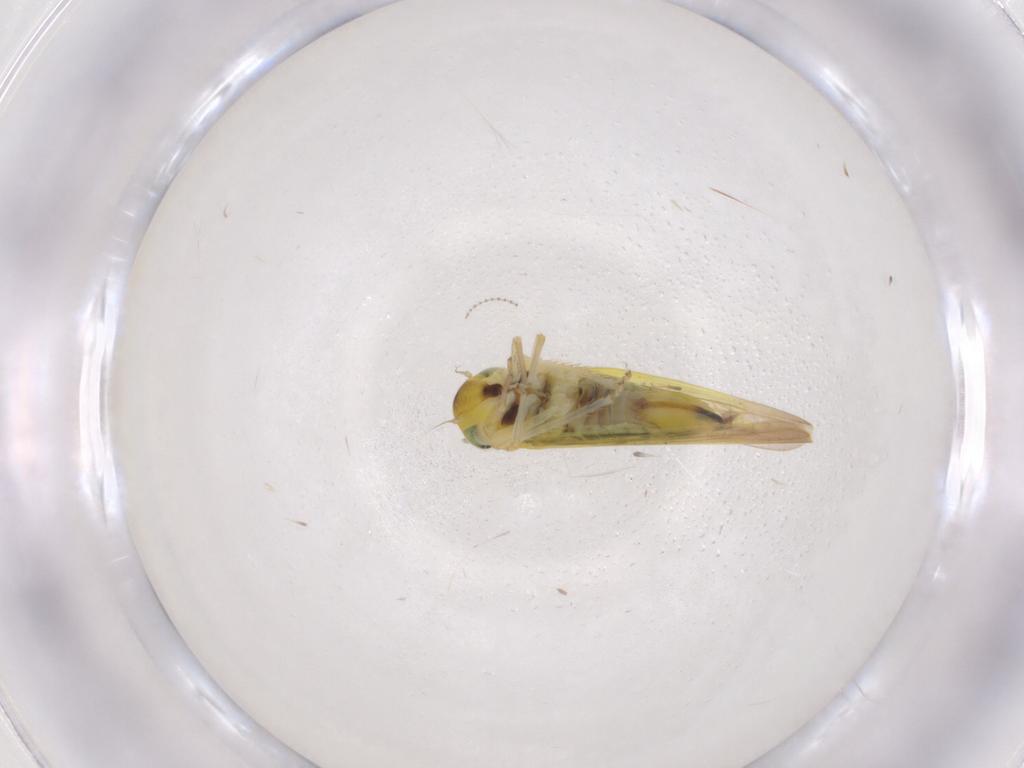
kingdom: Animalia
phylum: Arthropoda
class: Insecta
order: Hemiptera
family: Cicadellidae
